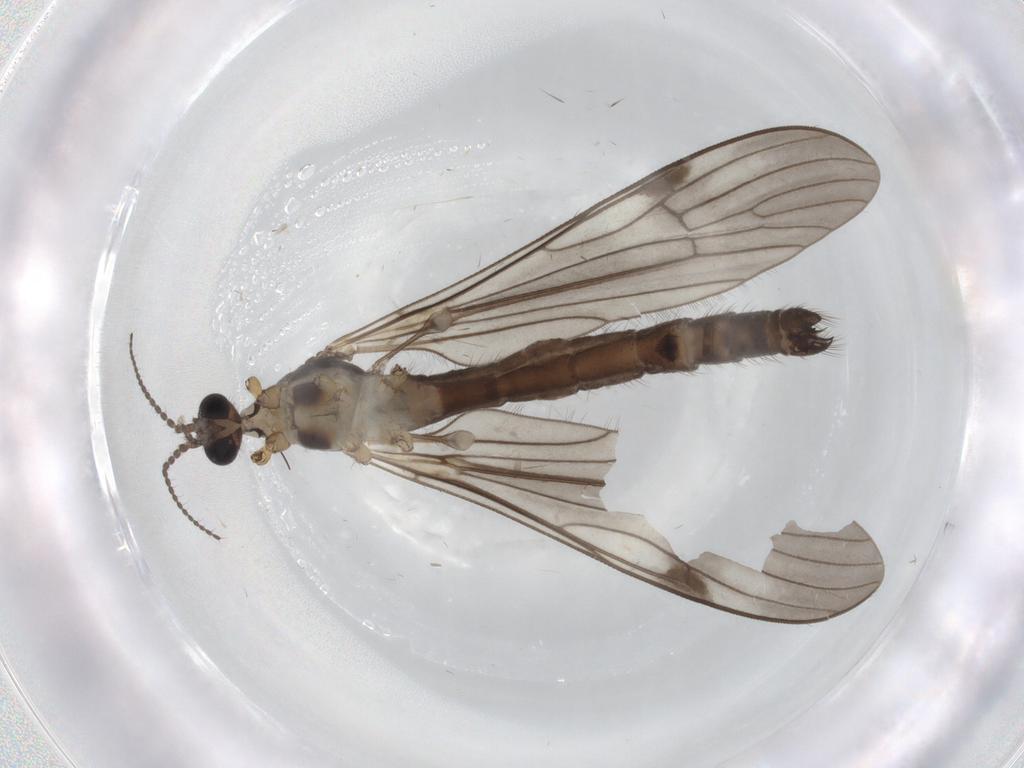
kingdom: Animalia
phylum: Arthropoda
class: Insecta
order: Diptera
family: Limoniidae
